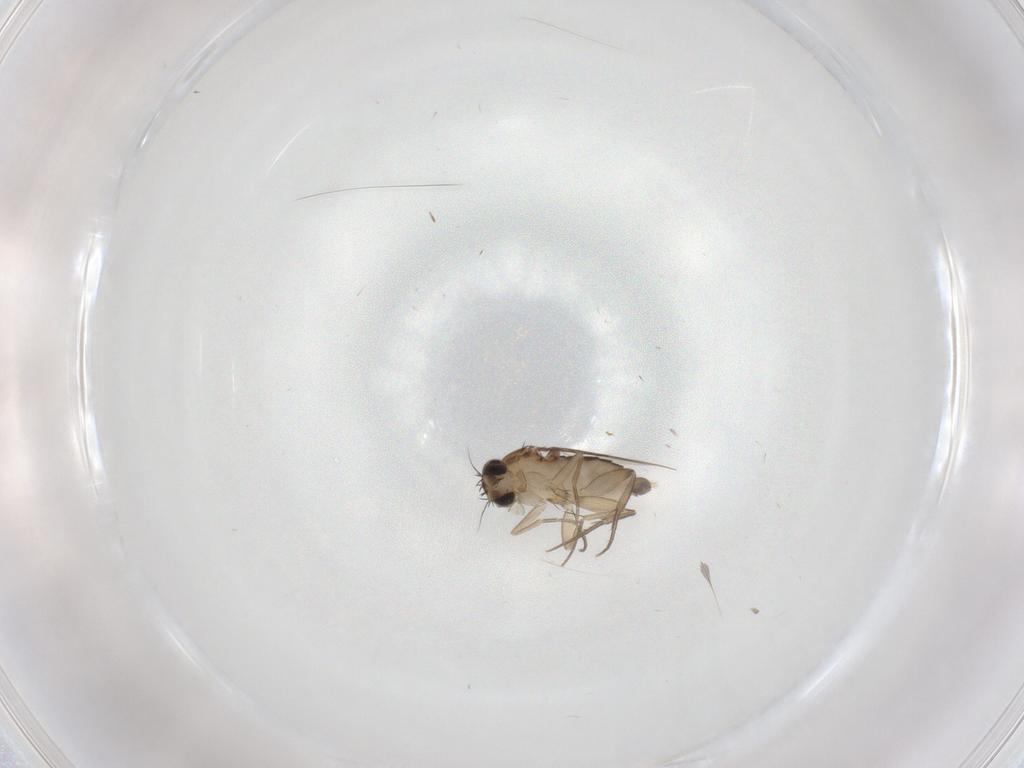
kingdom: Animalia
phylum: Arthropoda
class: Insecta
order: Diptera
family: Phoridae
